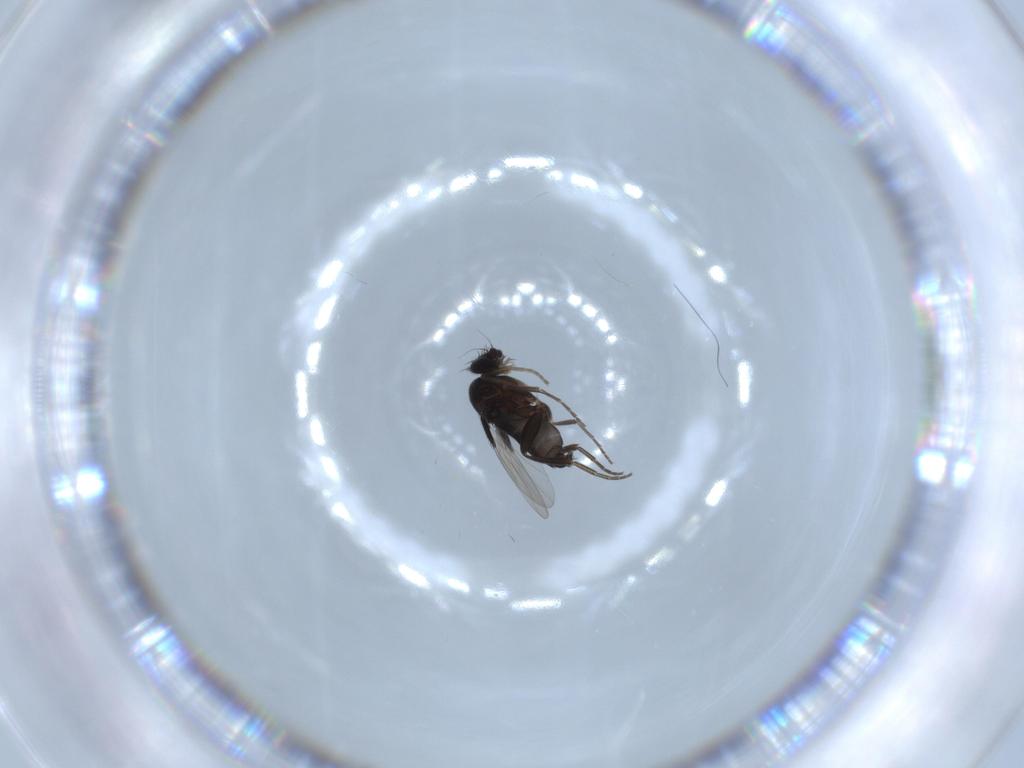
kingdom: Animalia
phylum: Arthropoda
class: Insecta
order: Diptera
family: Phoridae
